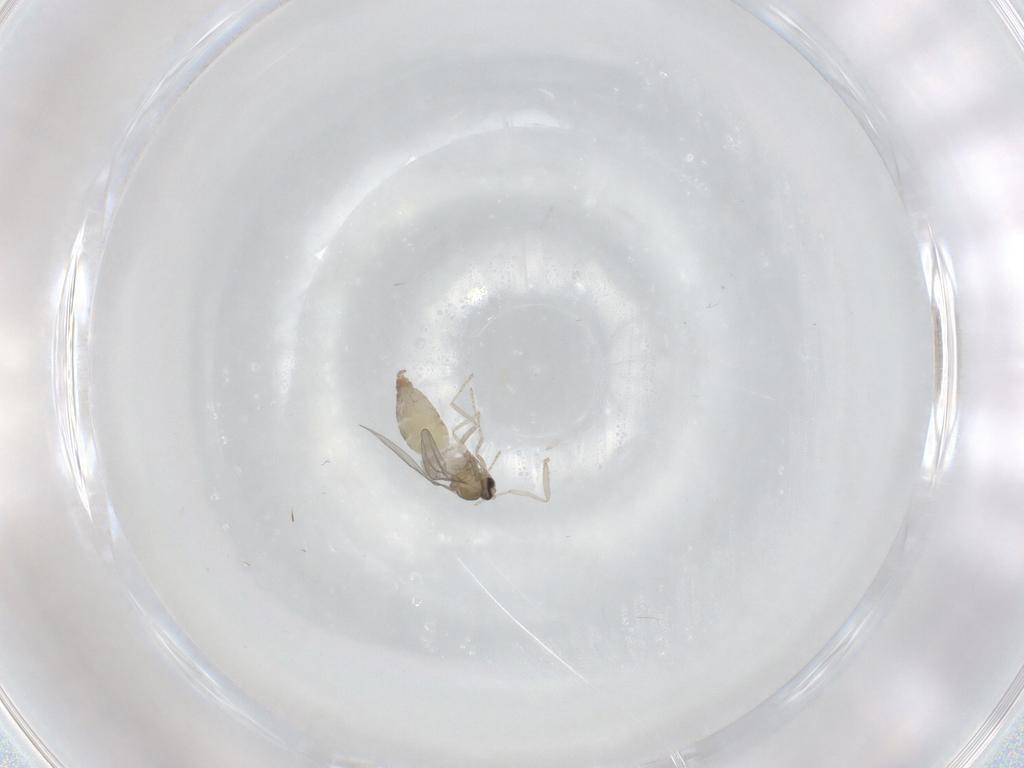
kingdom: Animalia
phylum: Arthropoda
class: Insecta
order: Diptera
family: Cecidomyiidae
